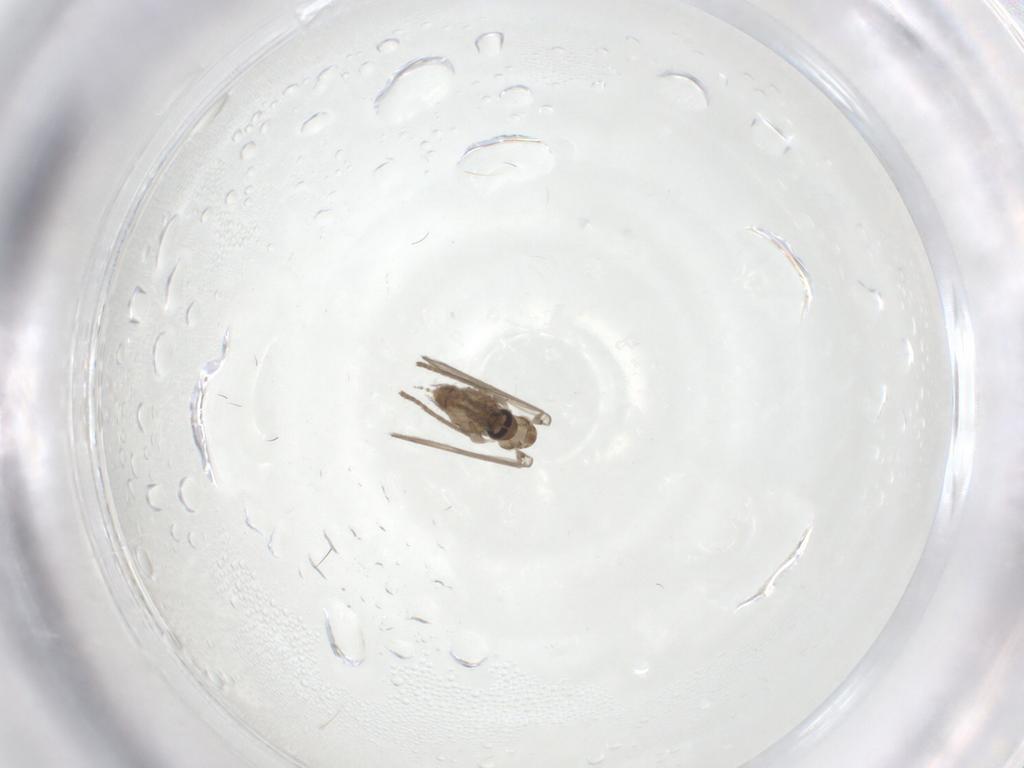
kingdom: Animalia
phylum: Arthropoda
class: Insecta
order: Diptera
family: Psychodidae
